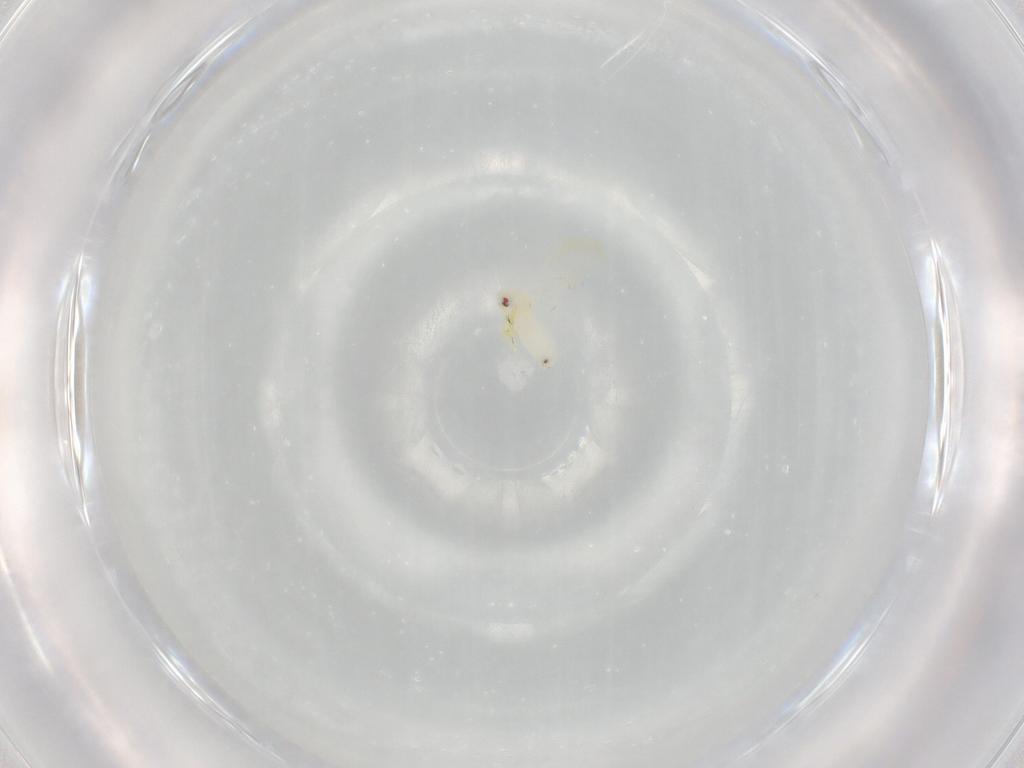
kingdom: Animalia
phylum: Arthropoda
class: Insecta
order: Hemiptera
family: Aleyrodidae
